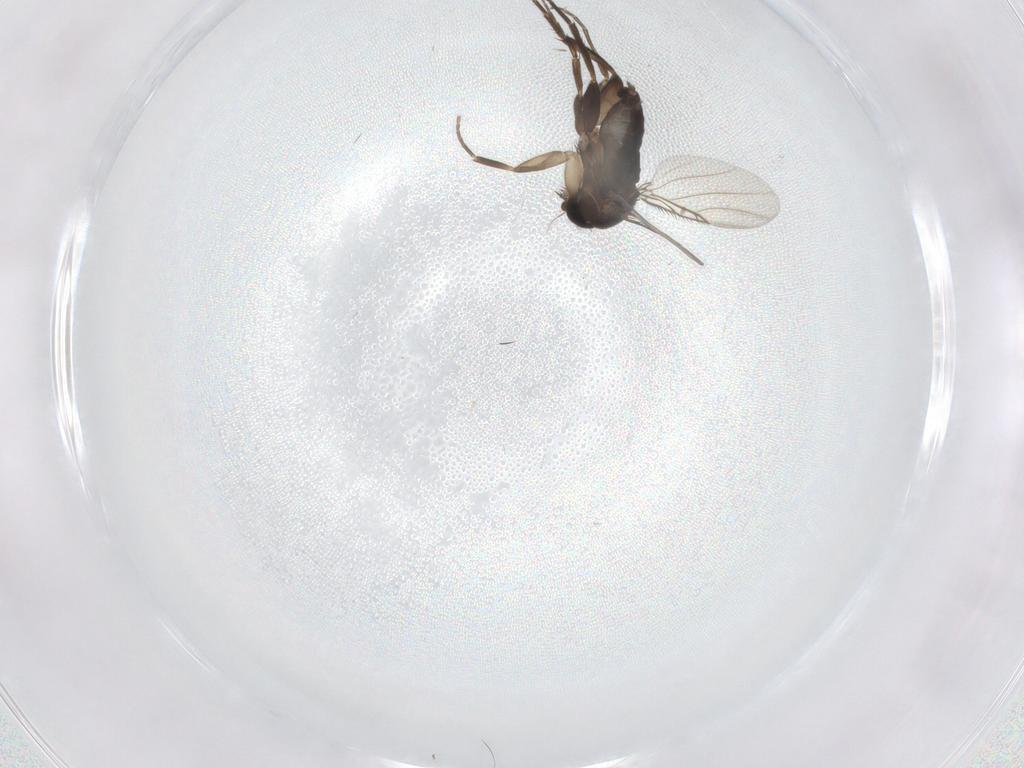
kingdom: Animalia
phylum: Arthropoda
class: Insecta
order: Diptera
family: Phoridae
